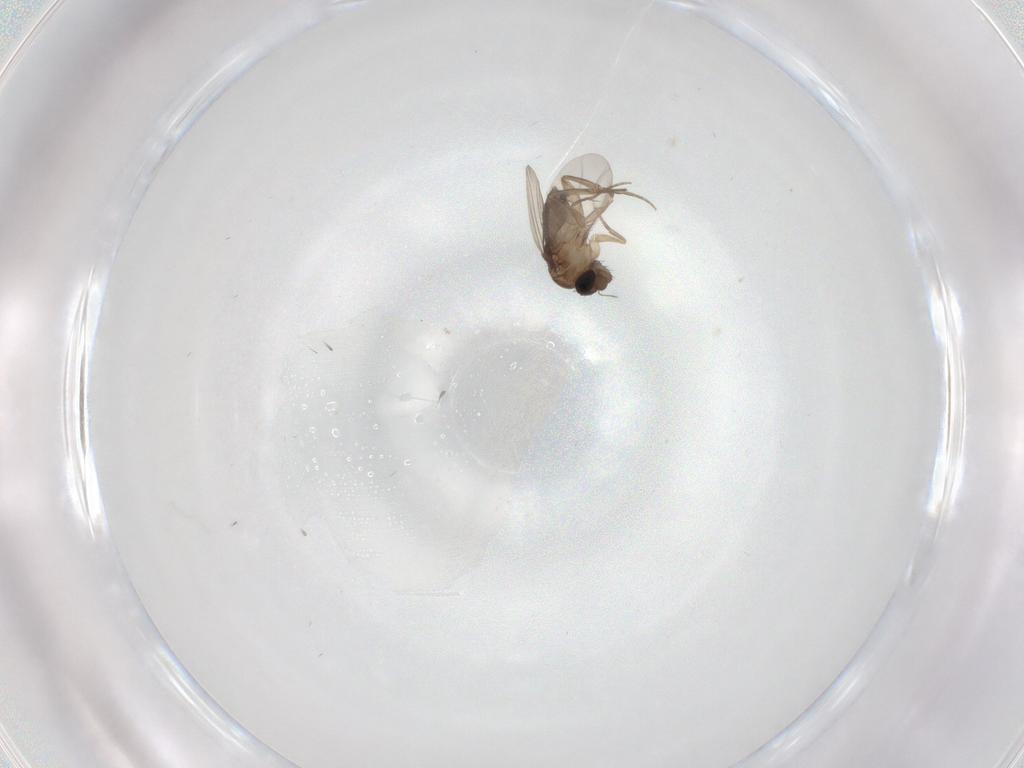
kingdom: Animalia
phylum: Arthropoda
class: Insecta
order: Diptera
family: Phoridae
